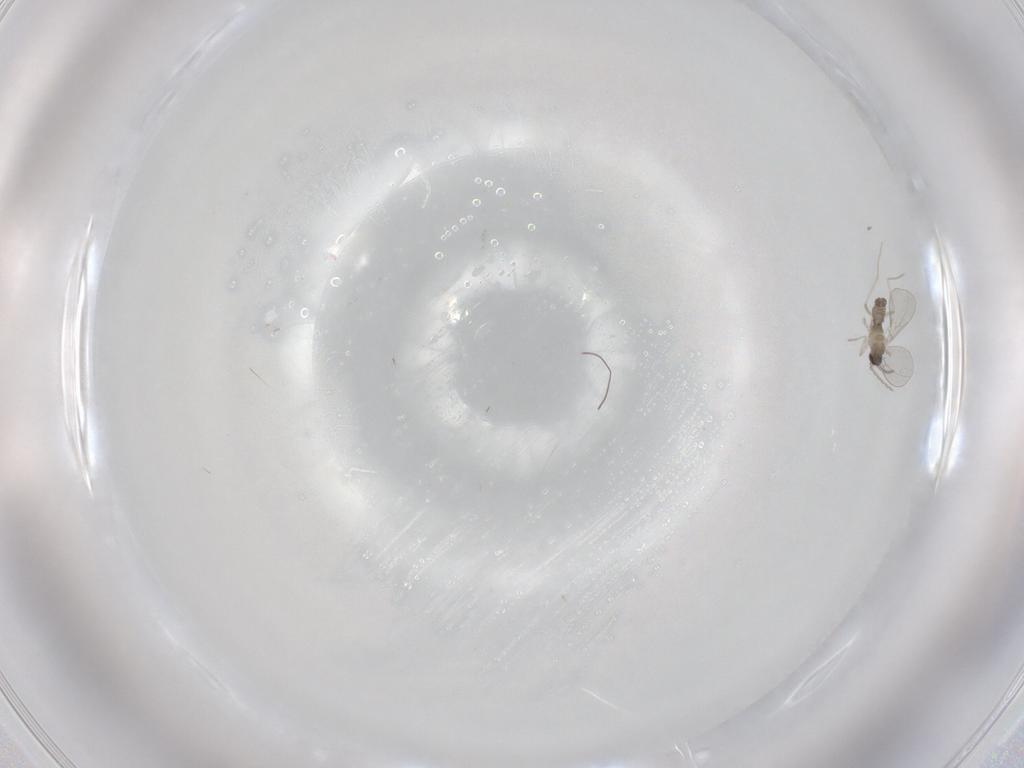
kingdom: Animalia
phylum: Arthropoda
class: Insecta
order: Diptera
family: Cecidomyiidae
